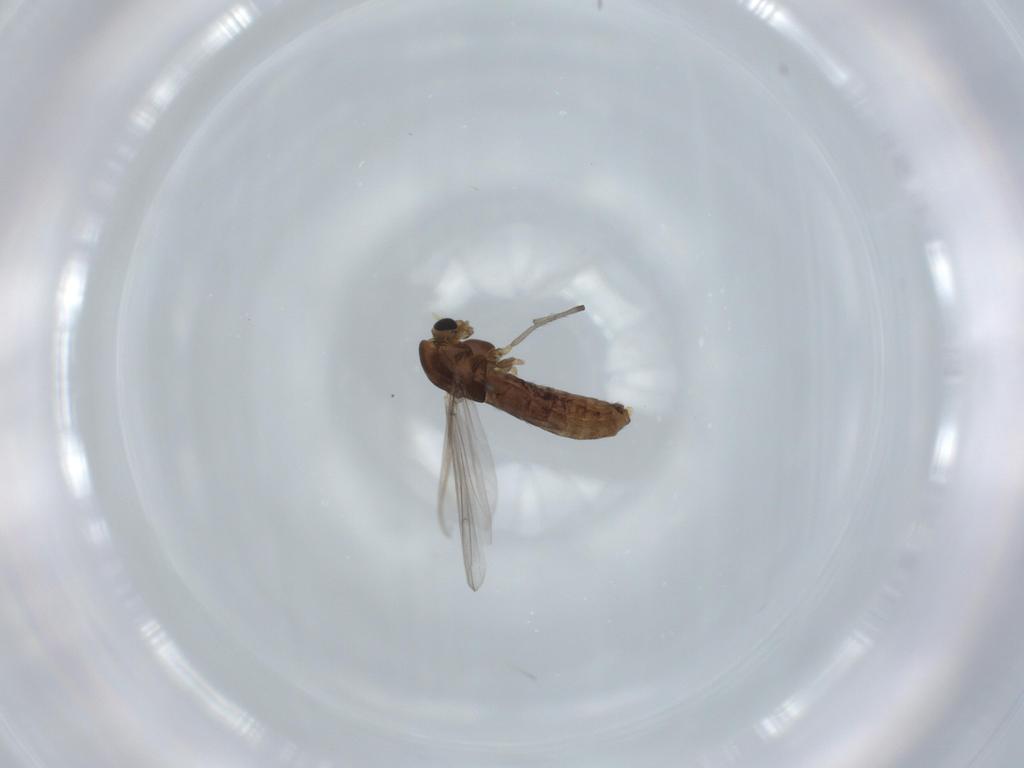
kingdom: Animalia
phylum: Arthropoda
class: Insecta
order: Diptera
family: Chironomidae
